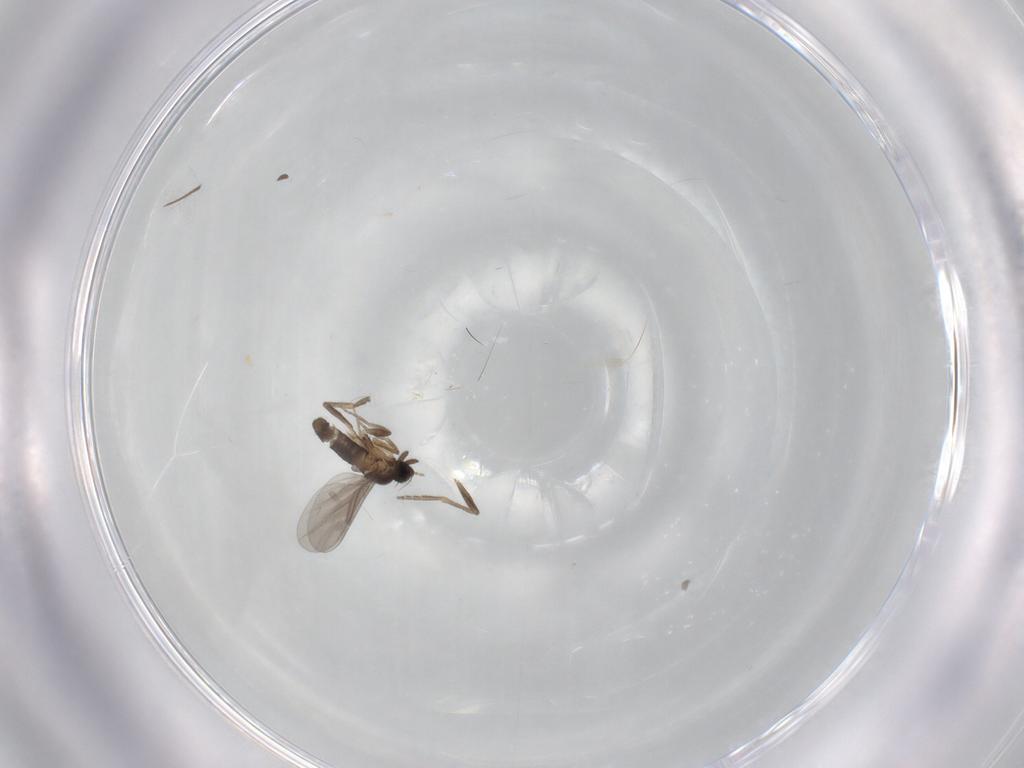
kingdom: Animalia
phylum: Arthropoda
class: Insecta
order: Diptera
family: Chironomidae
